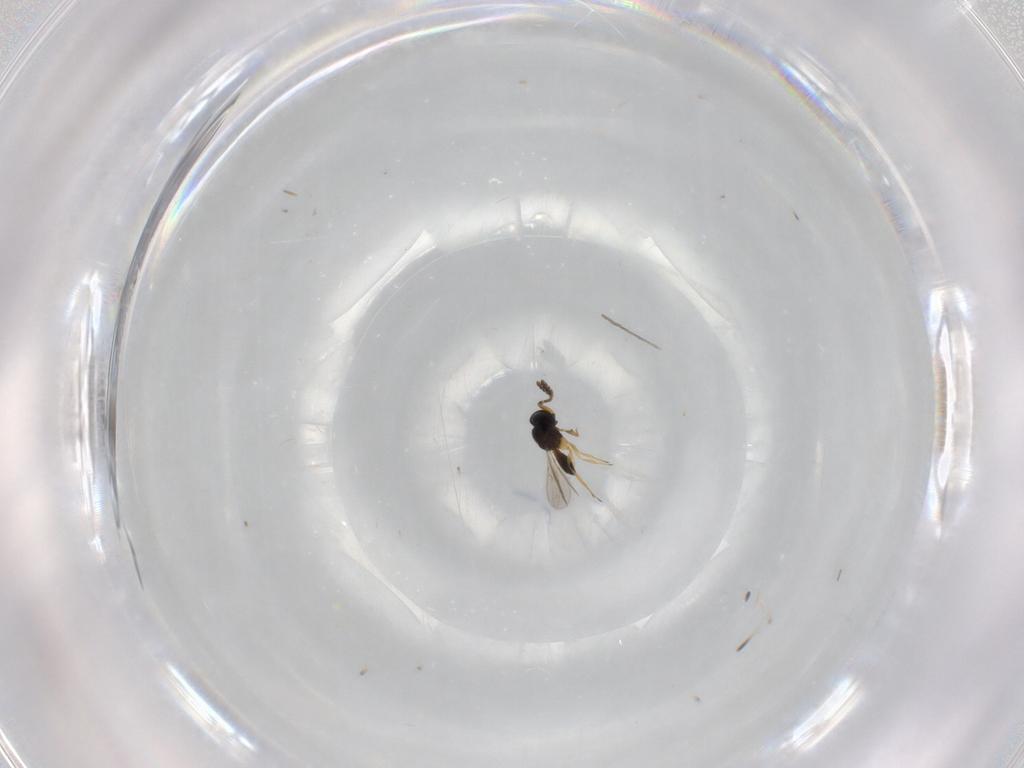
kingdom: Animalia
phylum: Arthropoda
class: Insecta
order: Hymenoptera
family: Scelionidae
